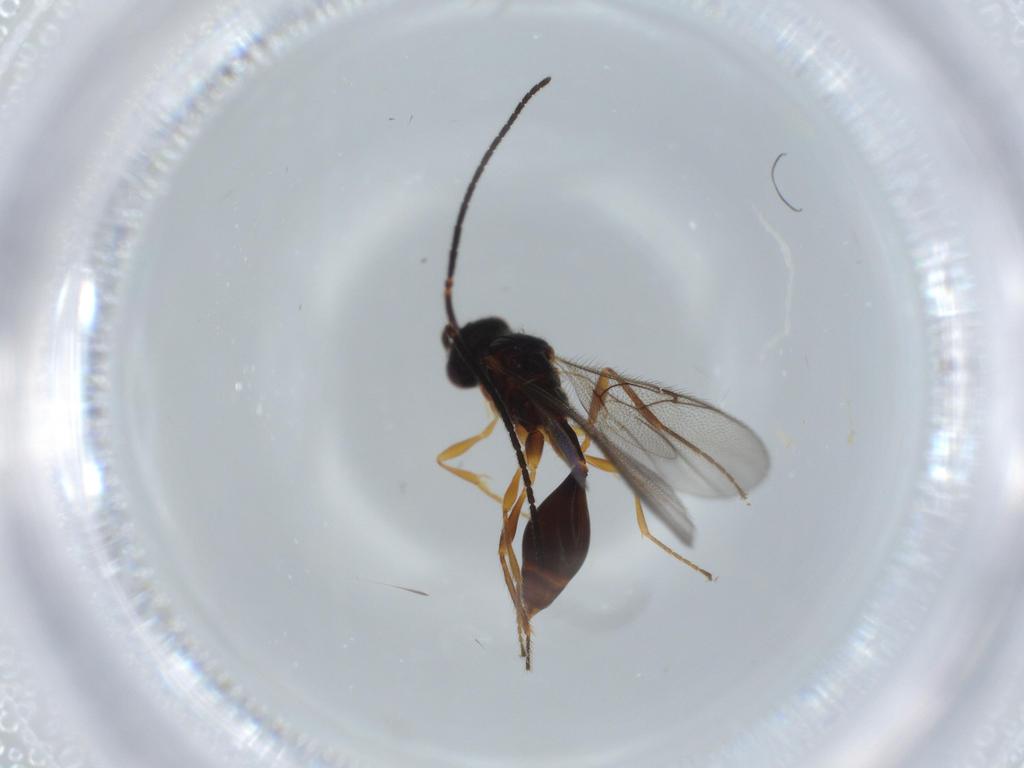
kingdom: Animalia
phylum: Arthropoda
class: Insecta
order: Hymenoptera
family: Diapriidae
